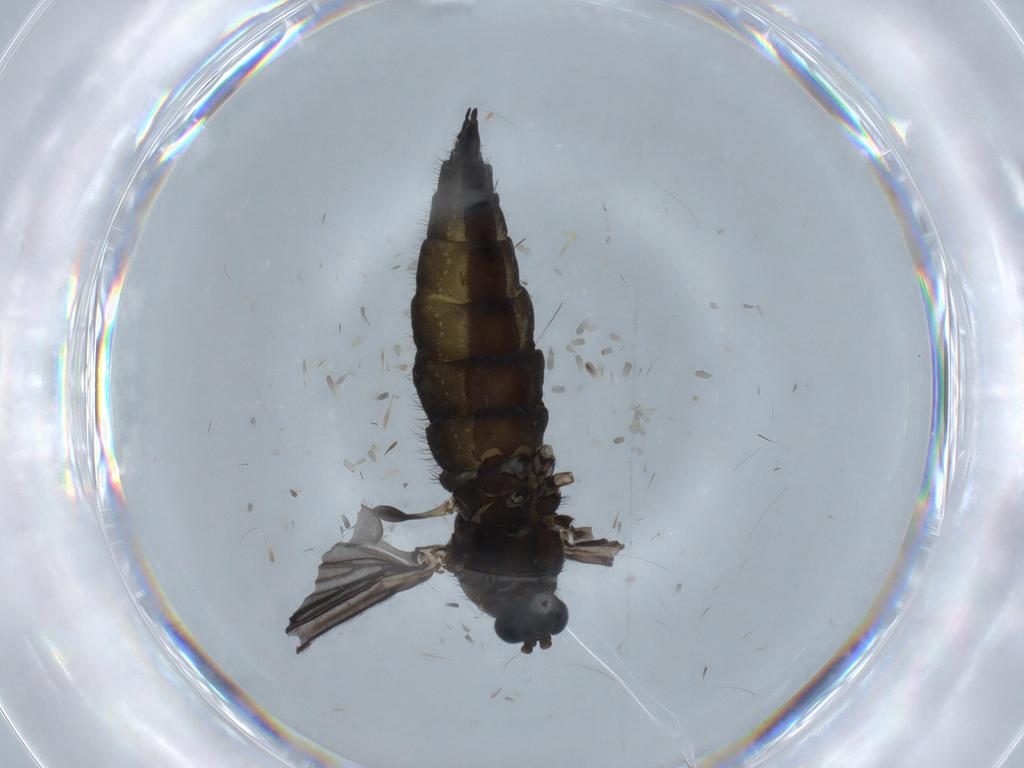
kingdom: Animalia
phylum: Arthropoda
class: Insecta
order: Diptera
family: Sciaridae
